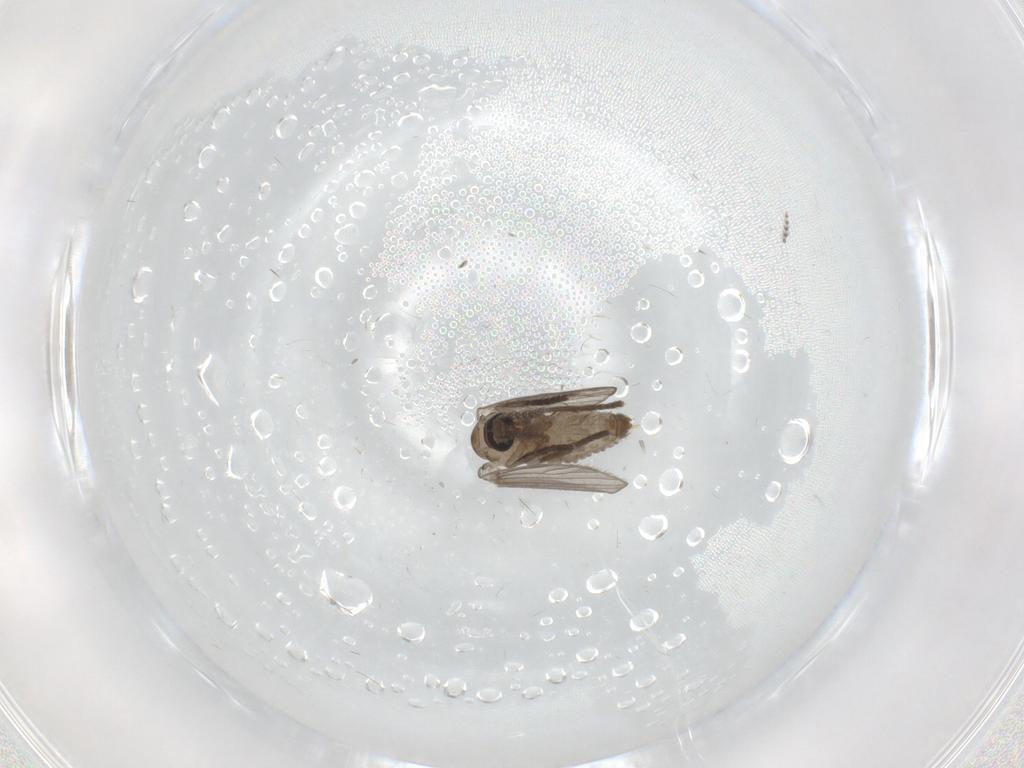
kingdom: Animalia
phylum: Arthropoda
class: Insecta
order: Diptera
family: Psychodidae
